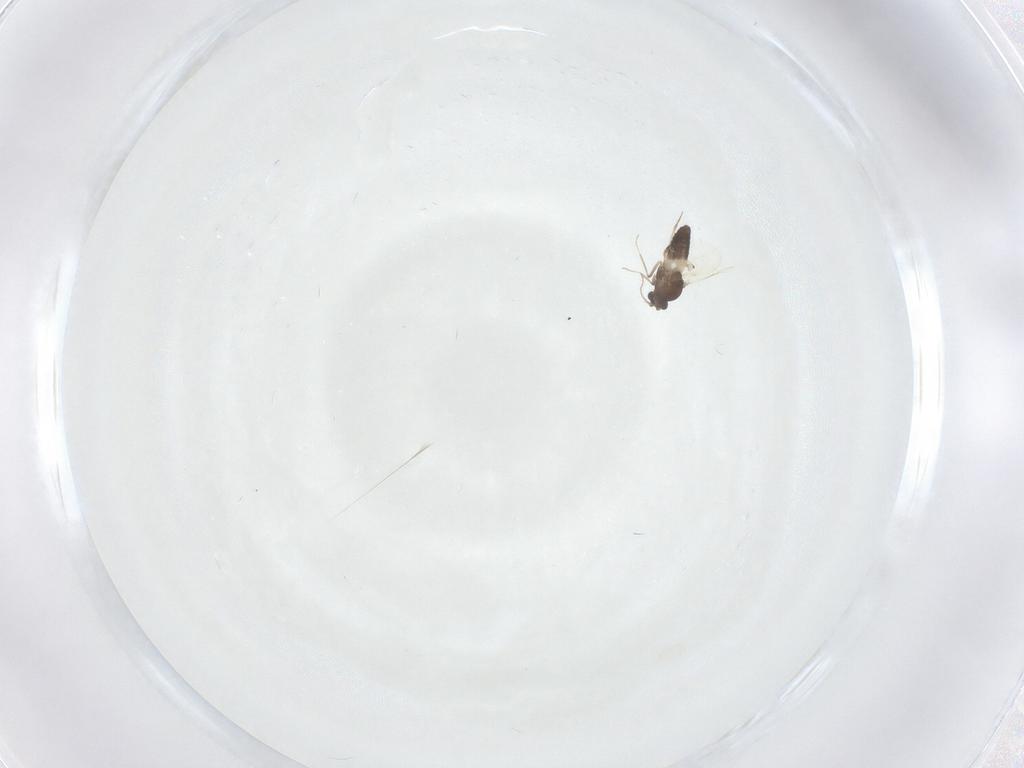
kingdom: Animalia
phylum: Arthropoda
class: Insecta
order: Diptera
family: Ceratopogonidae
